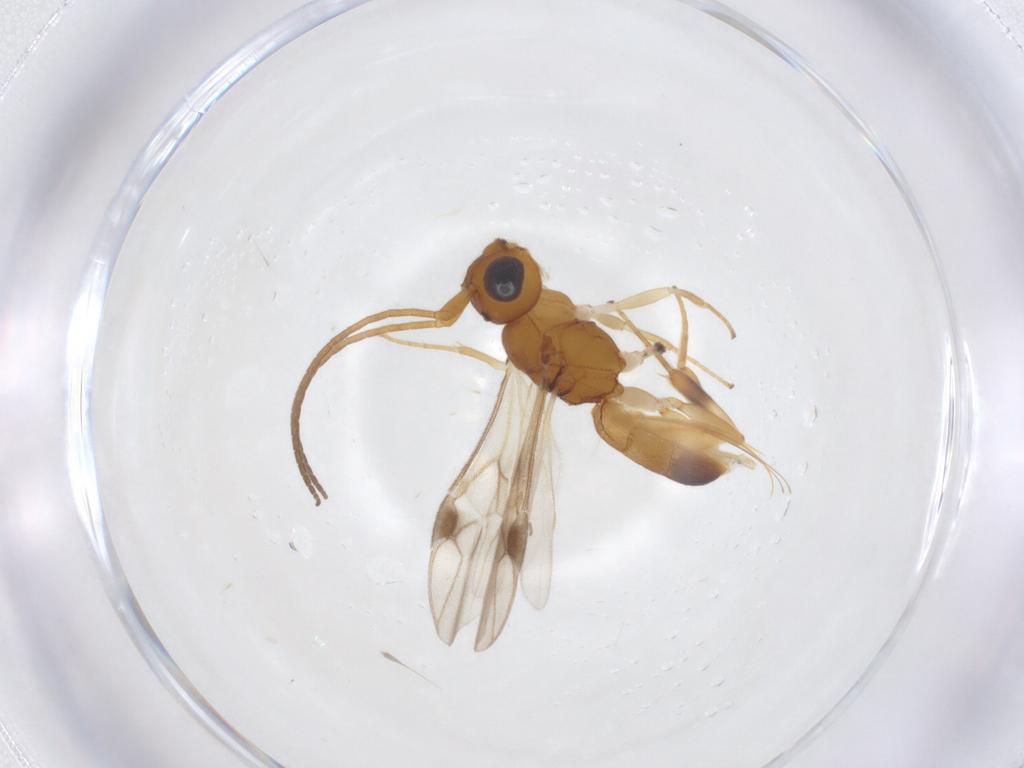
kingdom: Animalia
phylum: Arthropoda
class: Insecta
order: Hymenoptera
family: Braconidae
